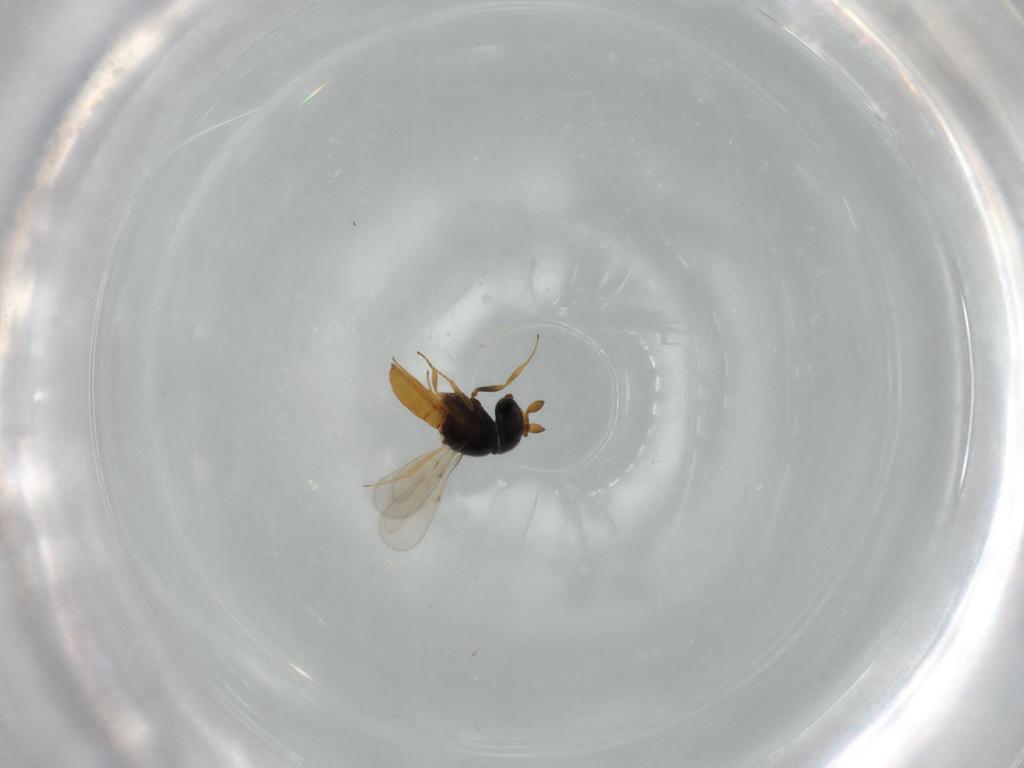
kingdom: Animalia
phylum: Arthropoda
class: Insecta
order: Hymenoptera
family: Scelionidae
